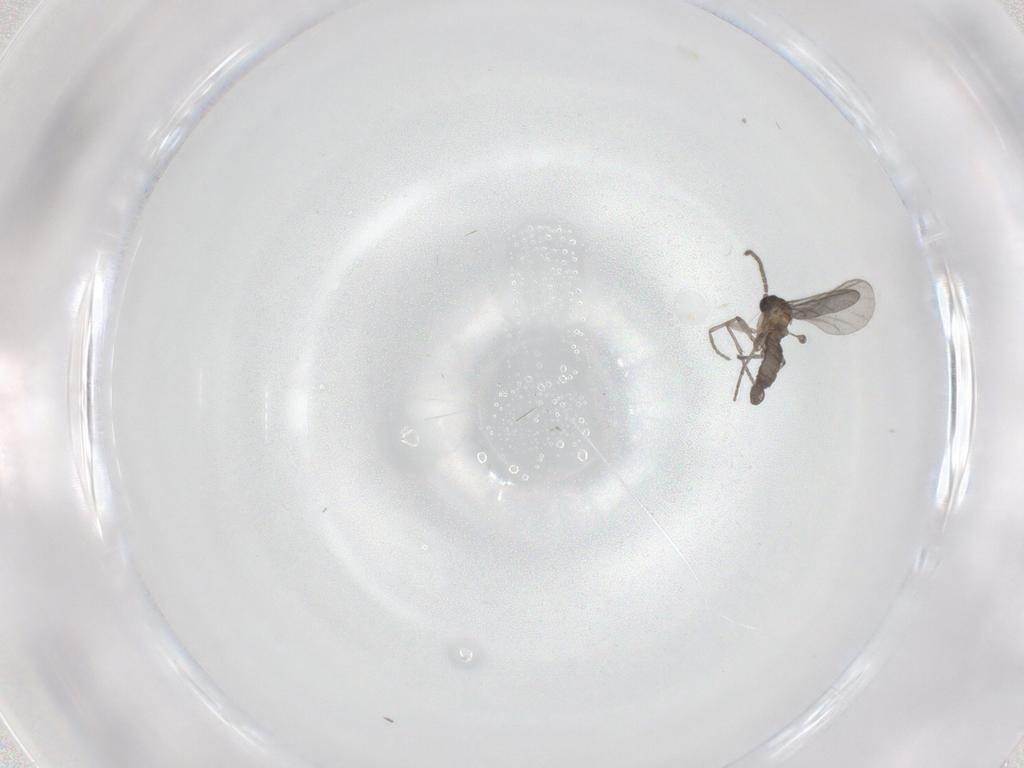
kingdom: Animalia
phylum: Arthropoda
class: Insecta
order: Diptera
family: Sciaridae
